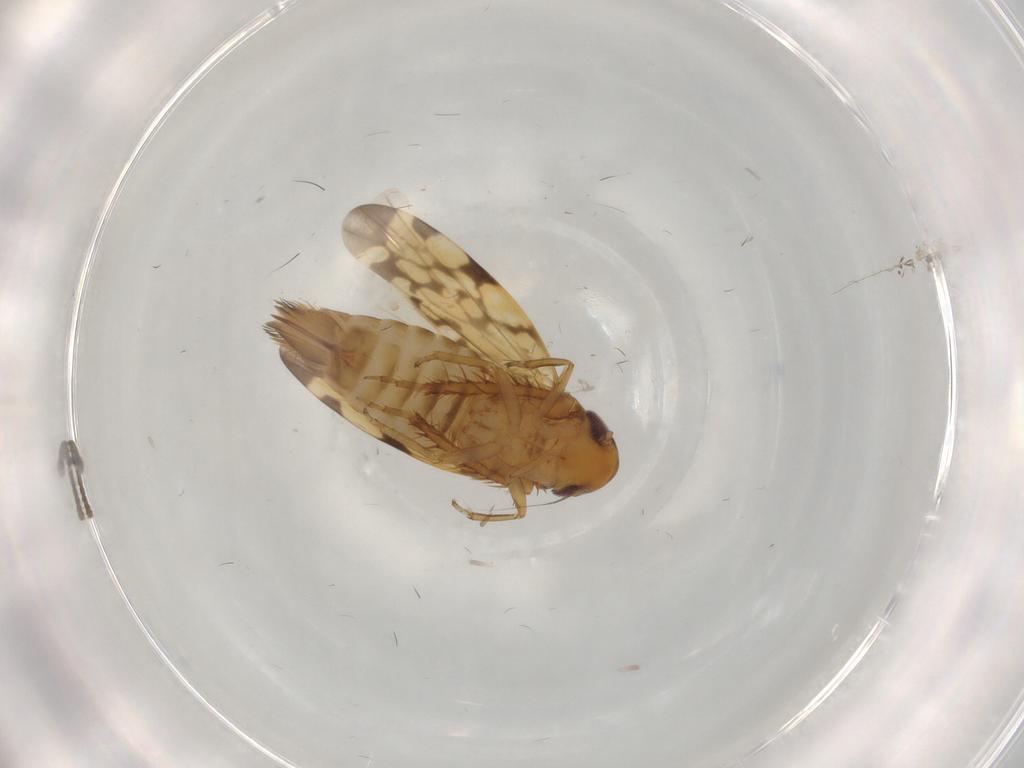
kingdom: Animalia
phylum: Arthropoda
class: Insecta
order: Hemiptera
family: Cicadellidae
